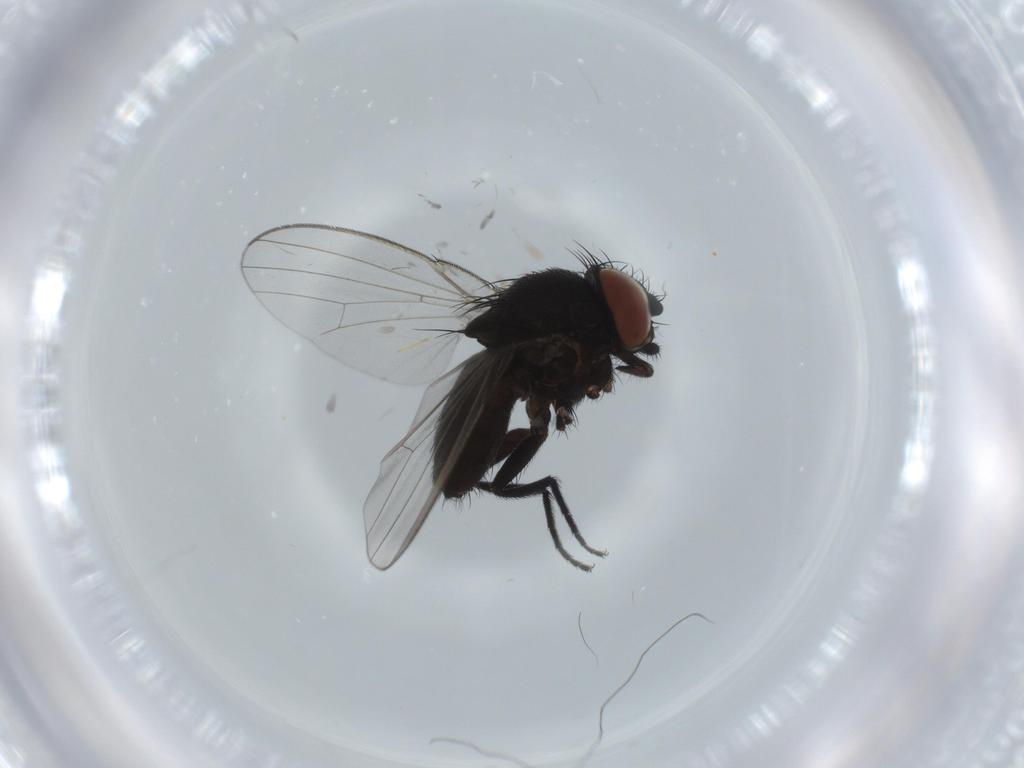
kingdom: Animalia
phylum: Arthropoda
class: Insecta
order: Diptera
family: Milichiidae
